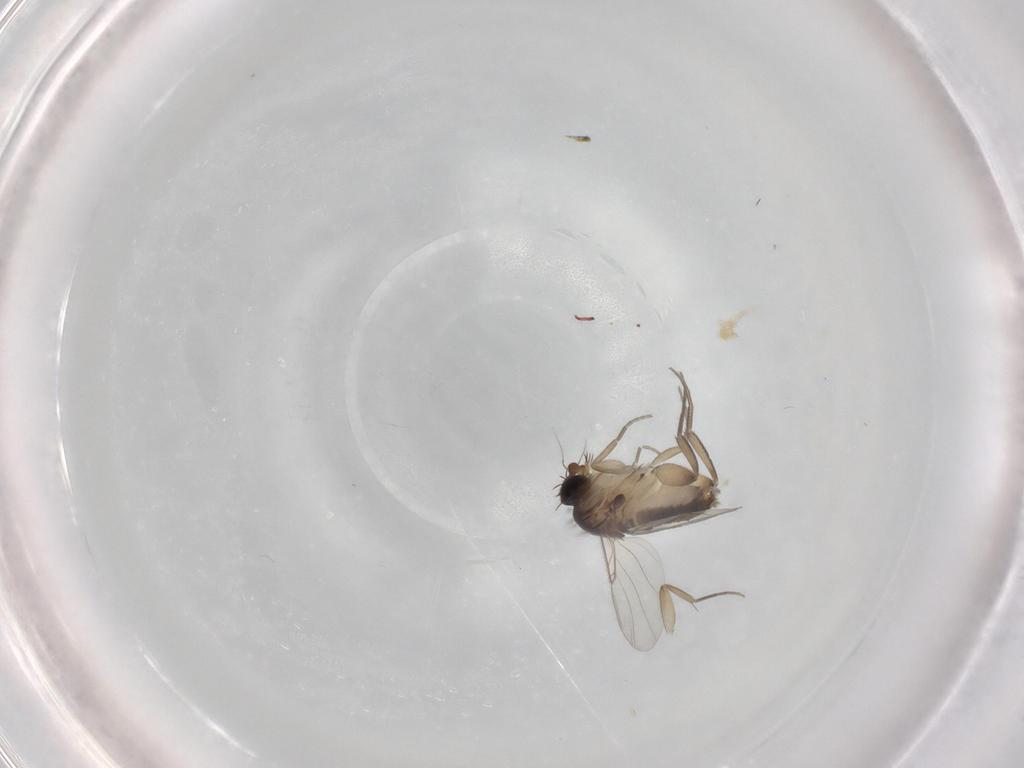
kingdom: Animalia
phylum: Arthropoda
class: Insecta
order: Diptera
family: Phoridae
